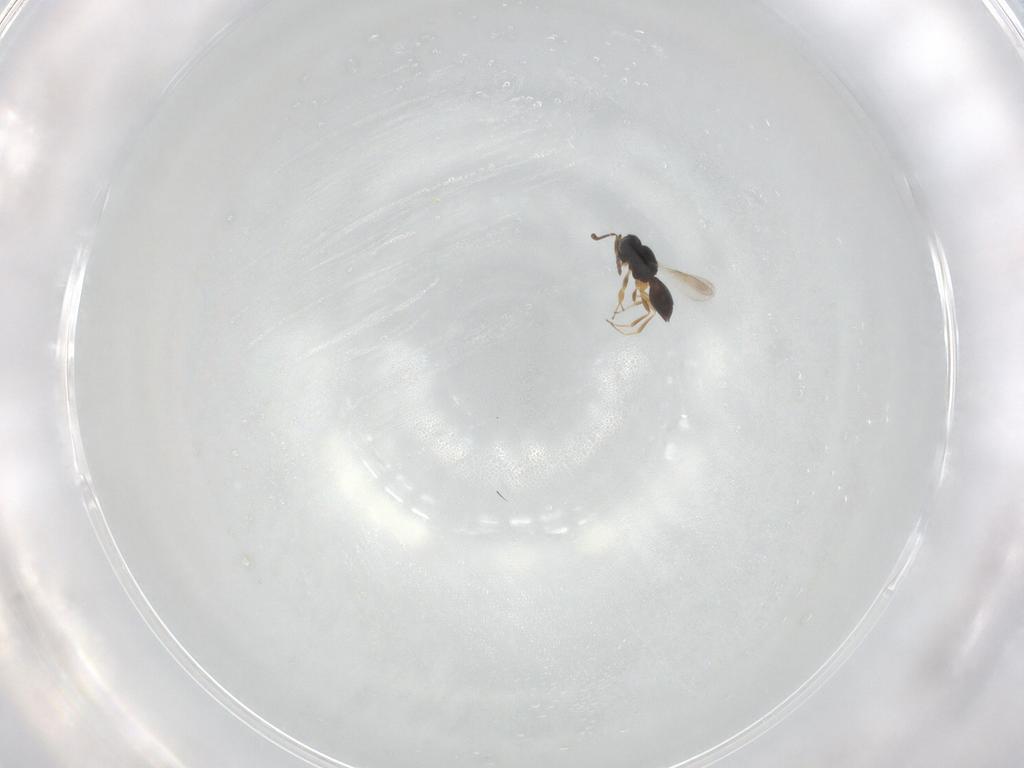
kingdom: Animalia
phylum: Arthropoda
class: Insecta
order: Hymenoptera
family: Scelionidae
